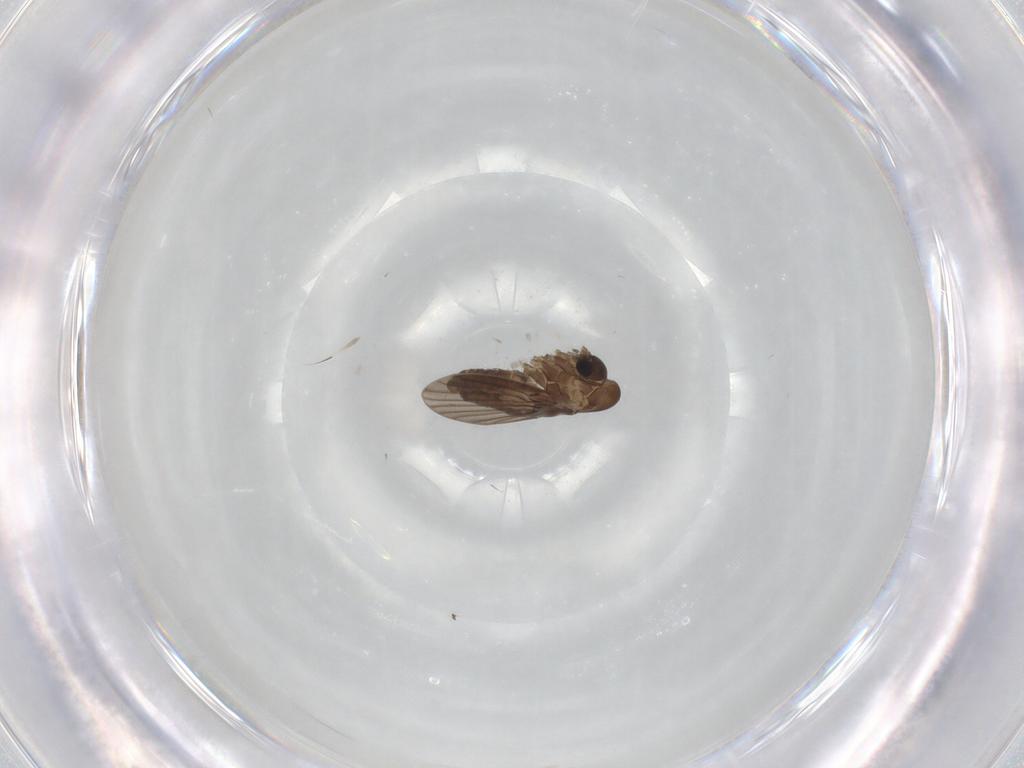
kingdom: Animalia
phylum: Arthropoda
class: Insecta
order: Diptera
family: Cecidomyiidae
